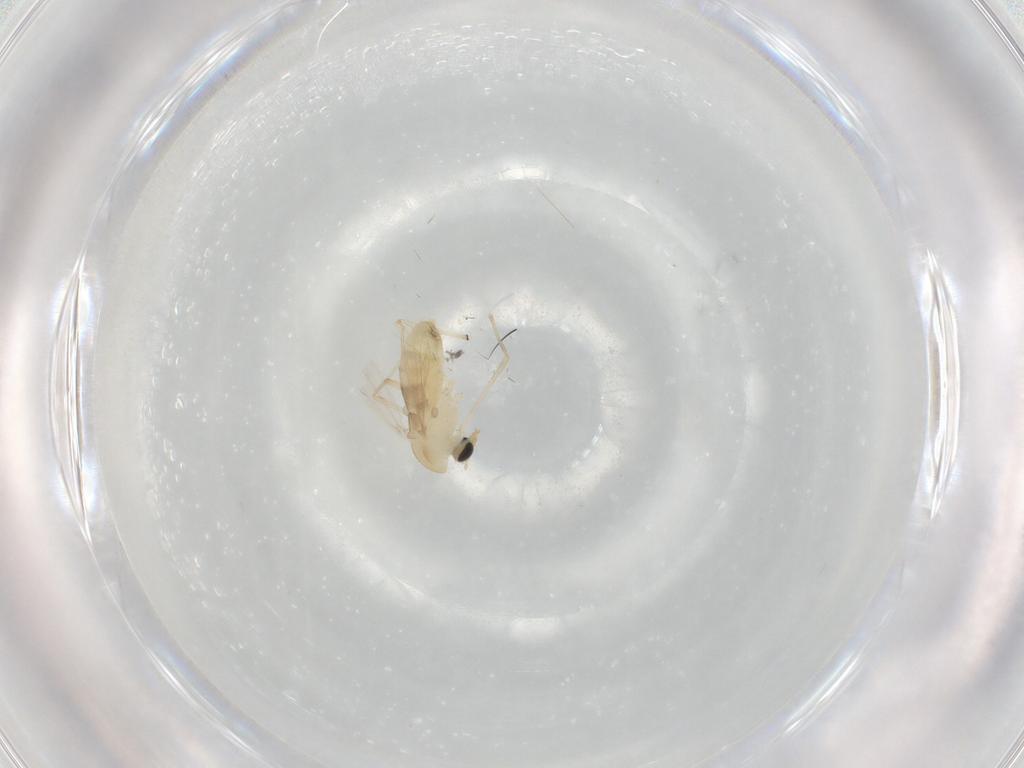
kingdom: Animalia
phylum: Arthropoda
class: Insecta
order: Diptera
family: Chironomidae
